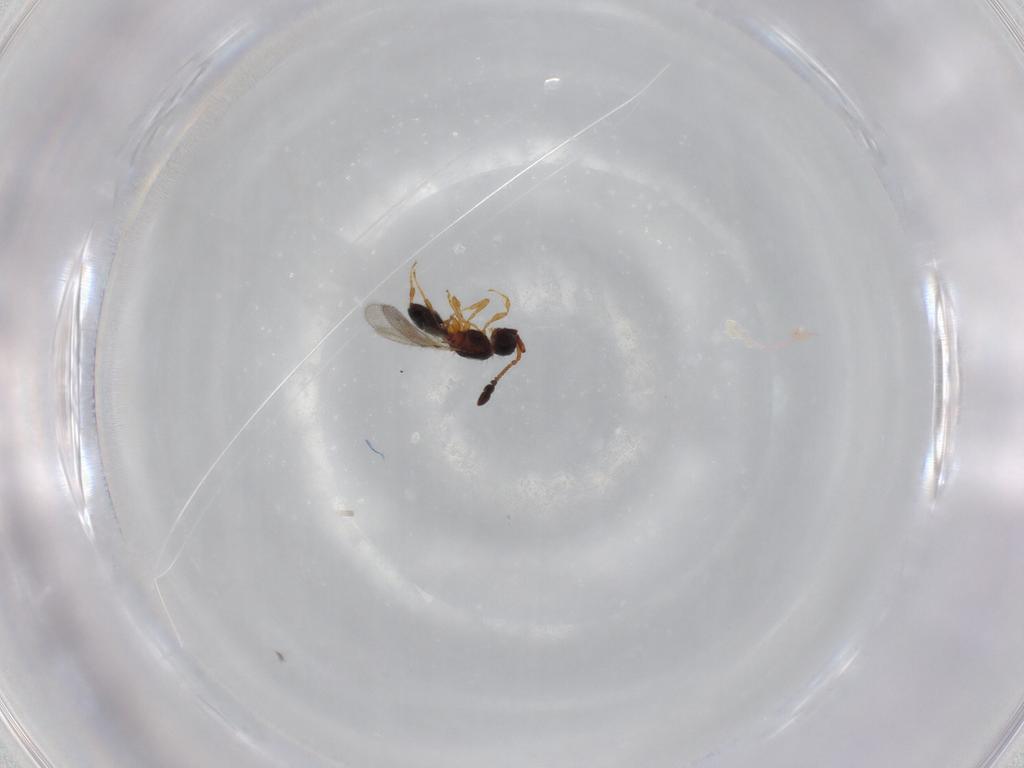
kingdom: Animalia
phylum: Arthropoda
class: Insecta
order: Hymenoptera
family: Diapriidae
